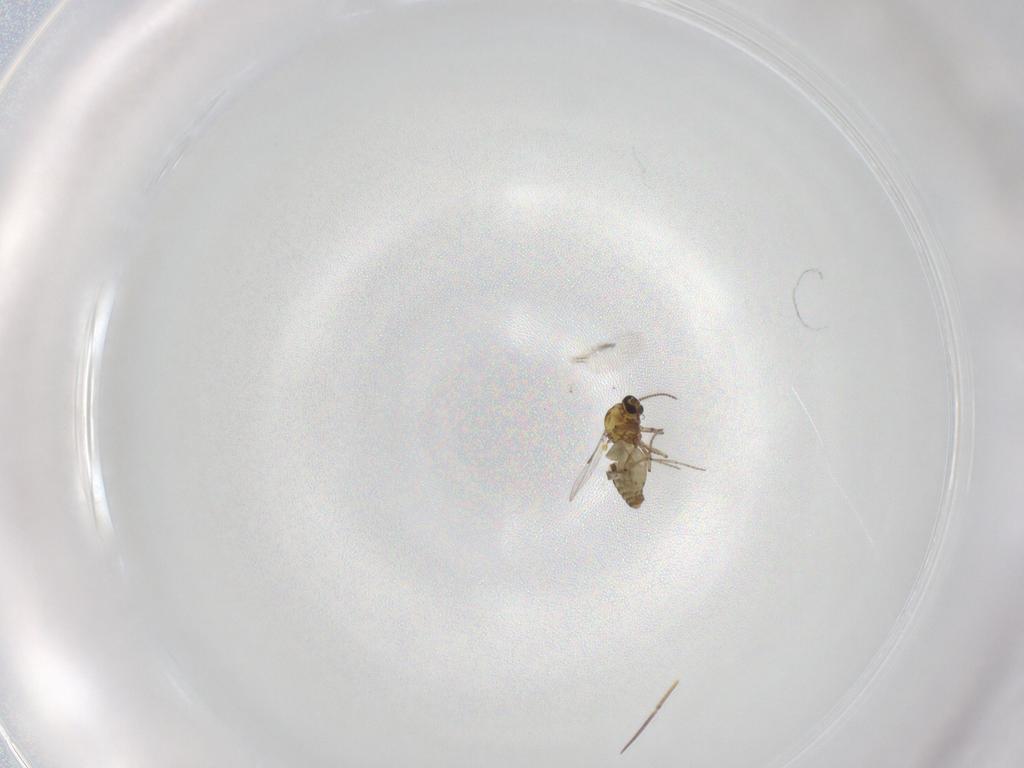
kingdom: Animalia
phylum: Arthropoda
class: Insecta
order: Diptera
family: Ceratopogonidae
